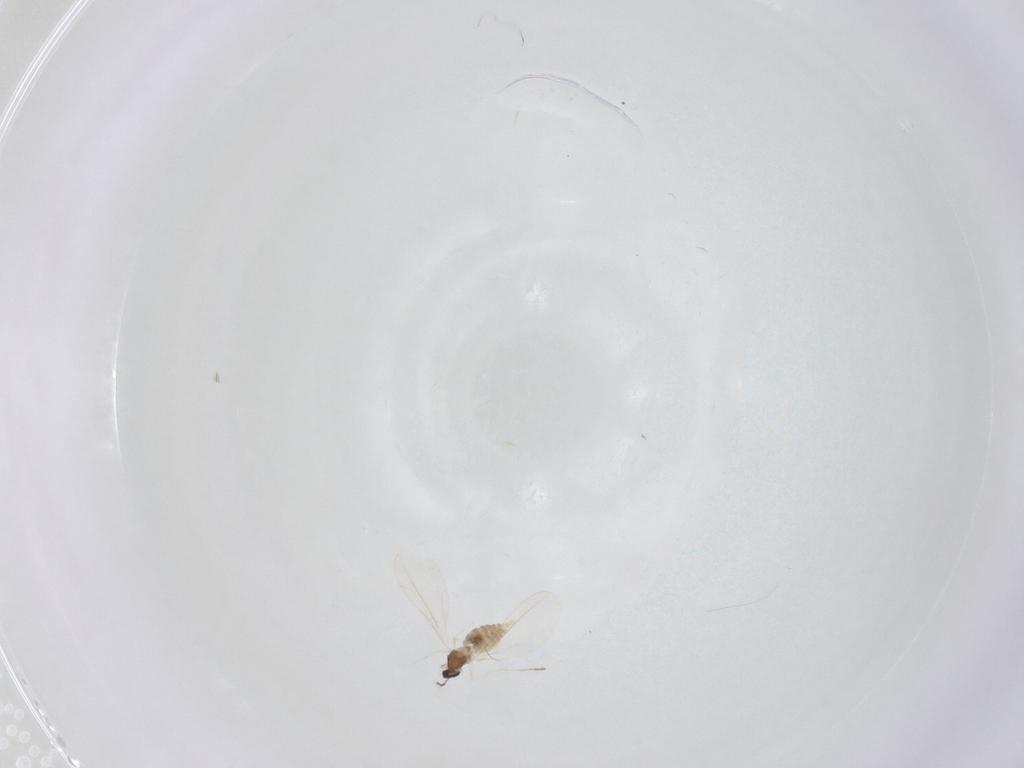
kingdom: Animalia
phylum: Arthropoda
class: Insecta
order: Diptera
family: Cecidomyiidae
